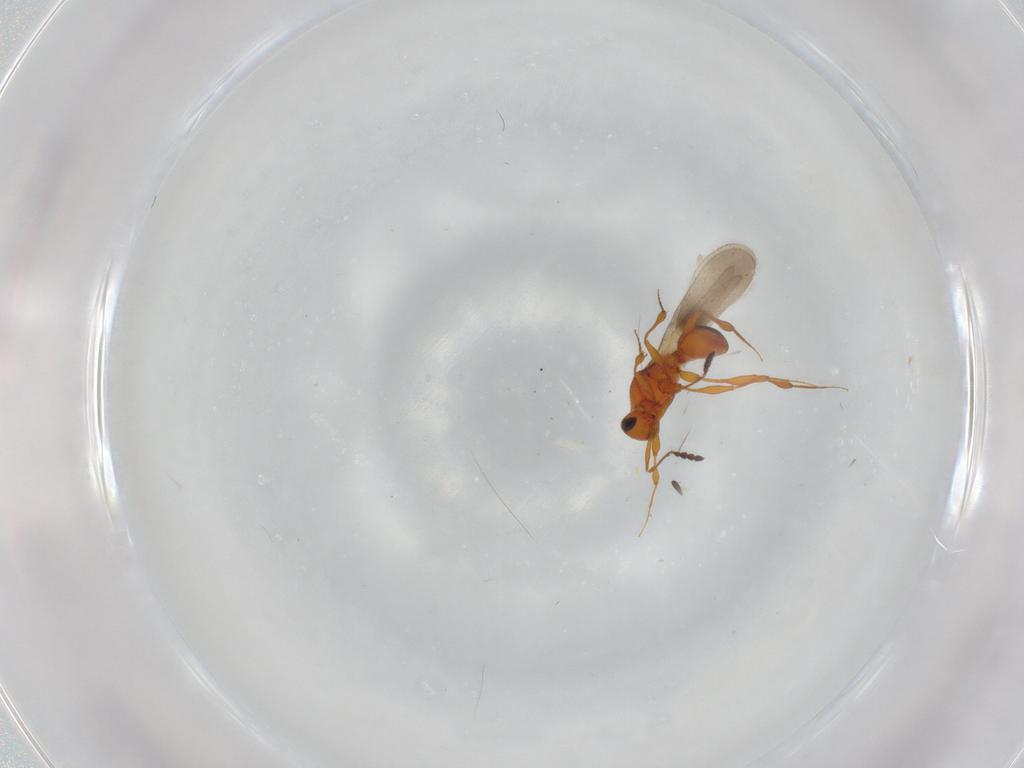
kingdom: Animalia
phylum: Arthropoda
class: Insecta
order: Hymenoptera
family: Platygastridae
